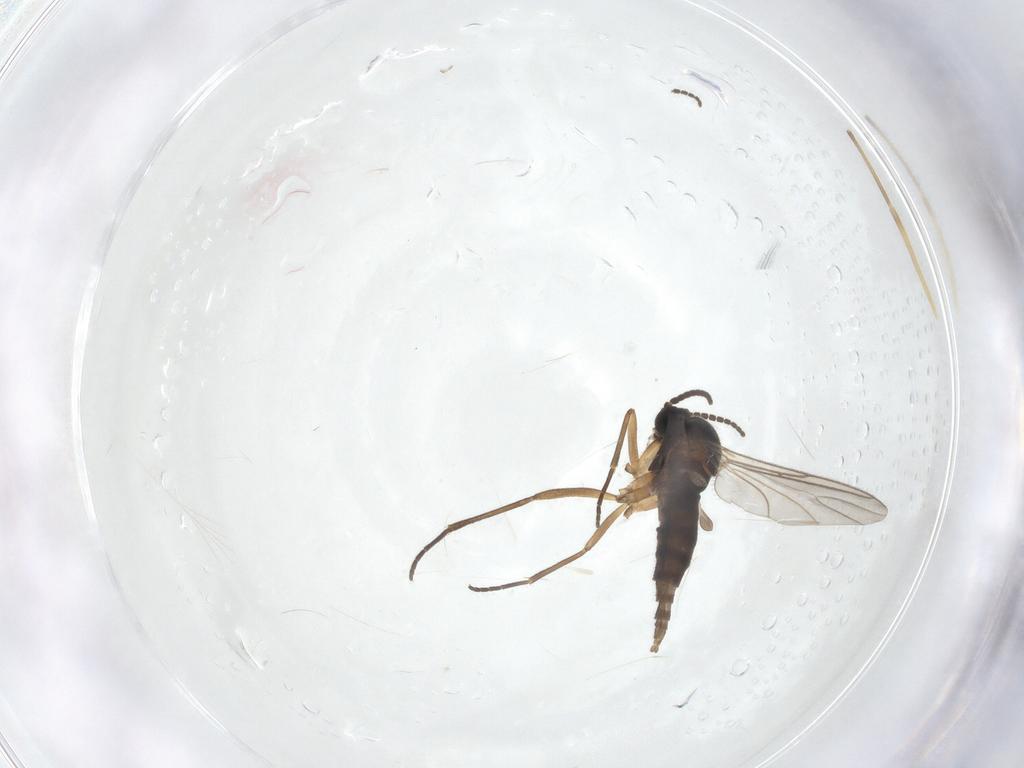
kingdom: Animalia
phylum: Arthropoda
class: Insecta
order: Diptera
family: Sciaridae
